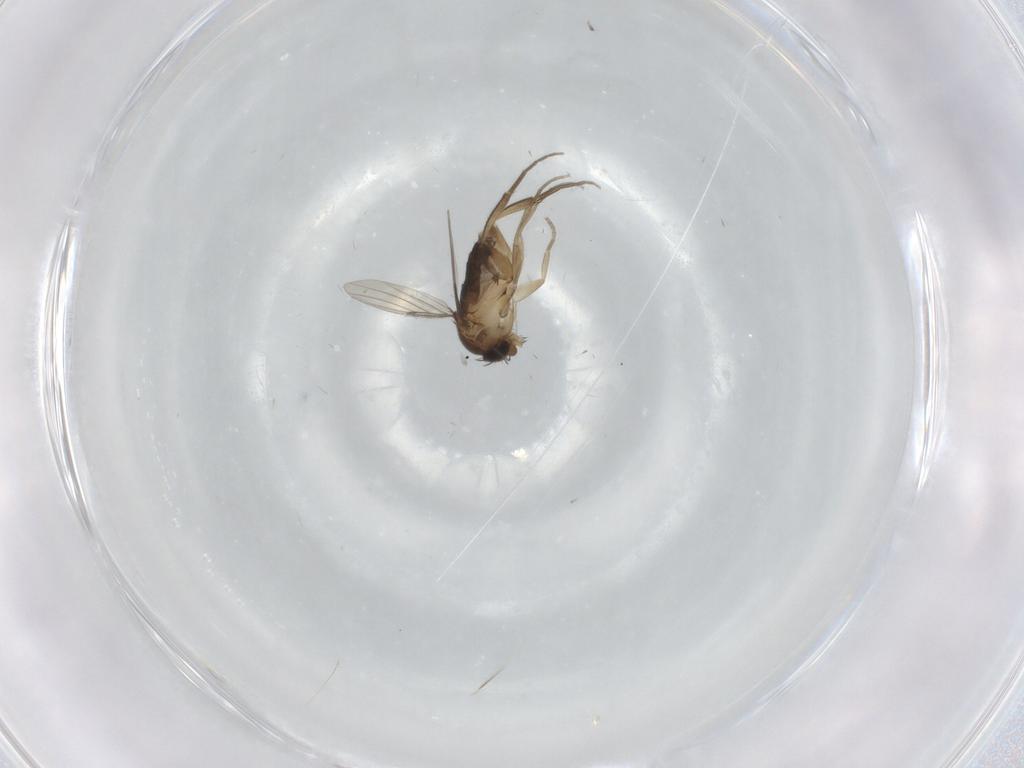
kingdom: Animalia
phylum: Arthropoda
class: Insecta
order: Diptera
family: Phoridae
